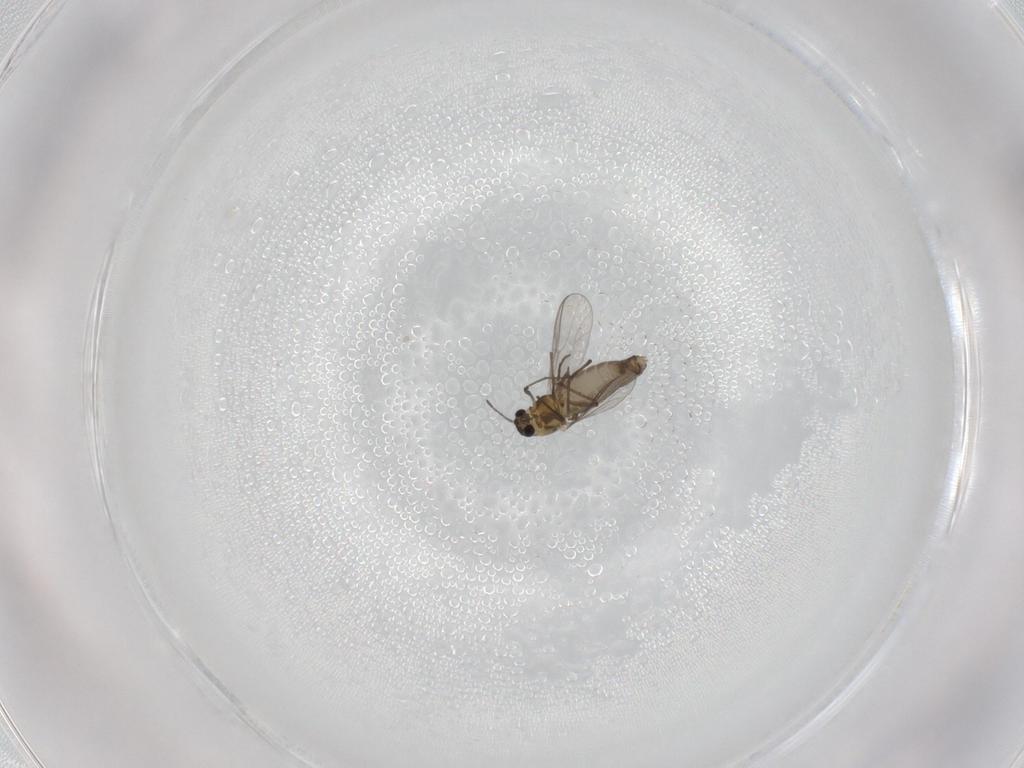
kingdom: Animalia
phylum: Arthropoda
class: Insecta
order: Diptera
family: Chironomidae
